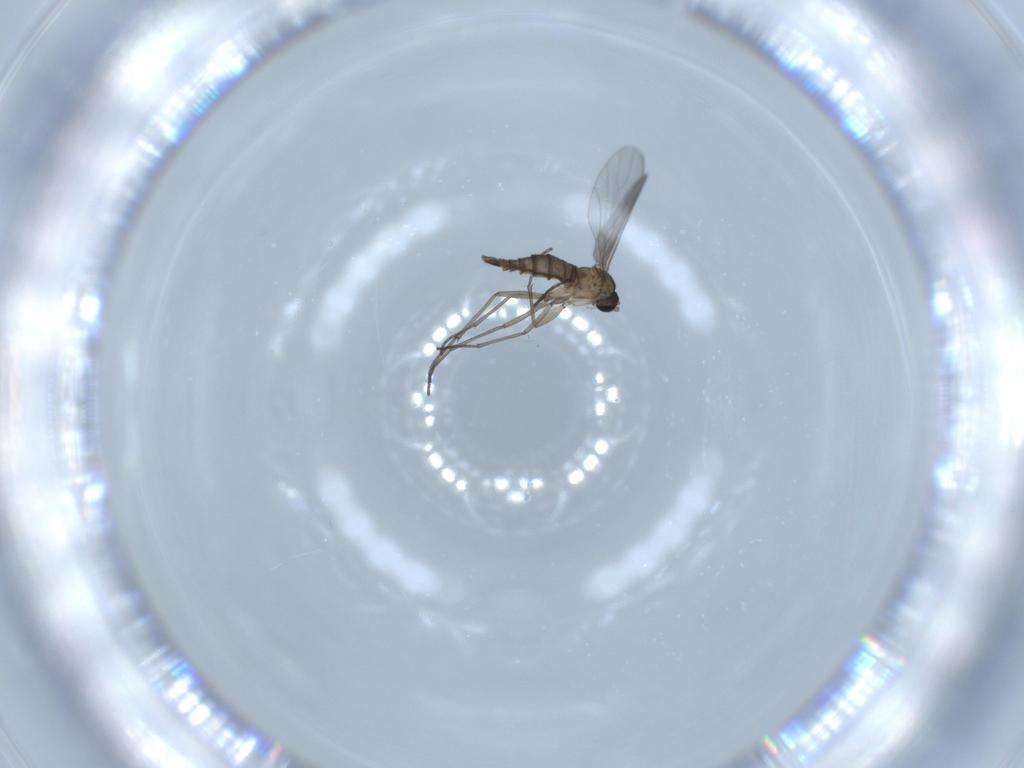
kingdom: Animalia
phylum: Arthropoda
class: Insecta
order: Diptera
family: Sciaridae
